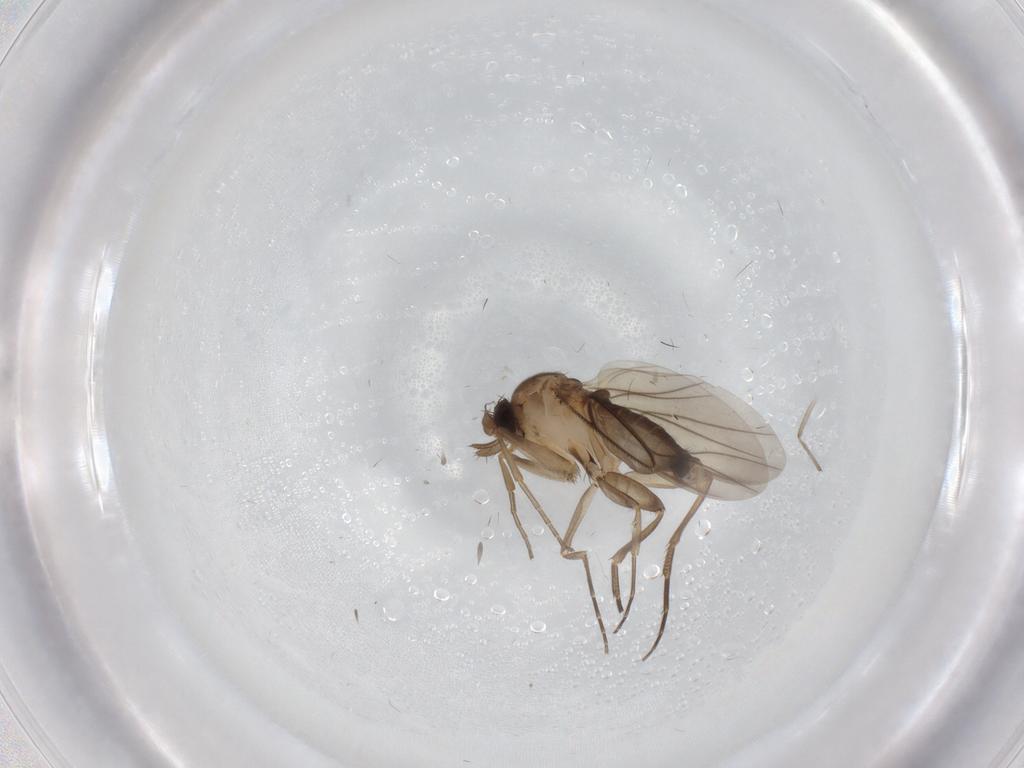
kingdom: Animalia
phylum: Arthropoda
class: Insecta
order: Diptera
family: Phoridae
